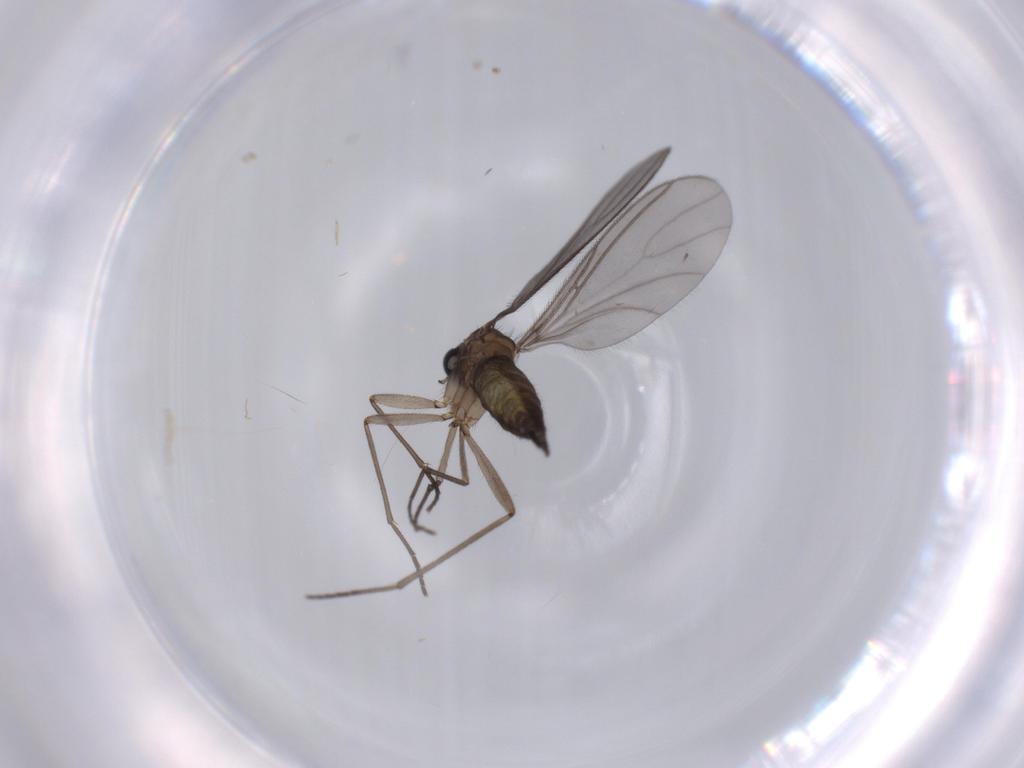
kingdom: Animalia
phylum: Arthropoda
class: Insecta
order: Diptera
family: Sciaridae
